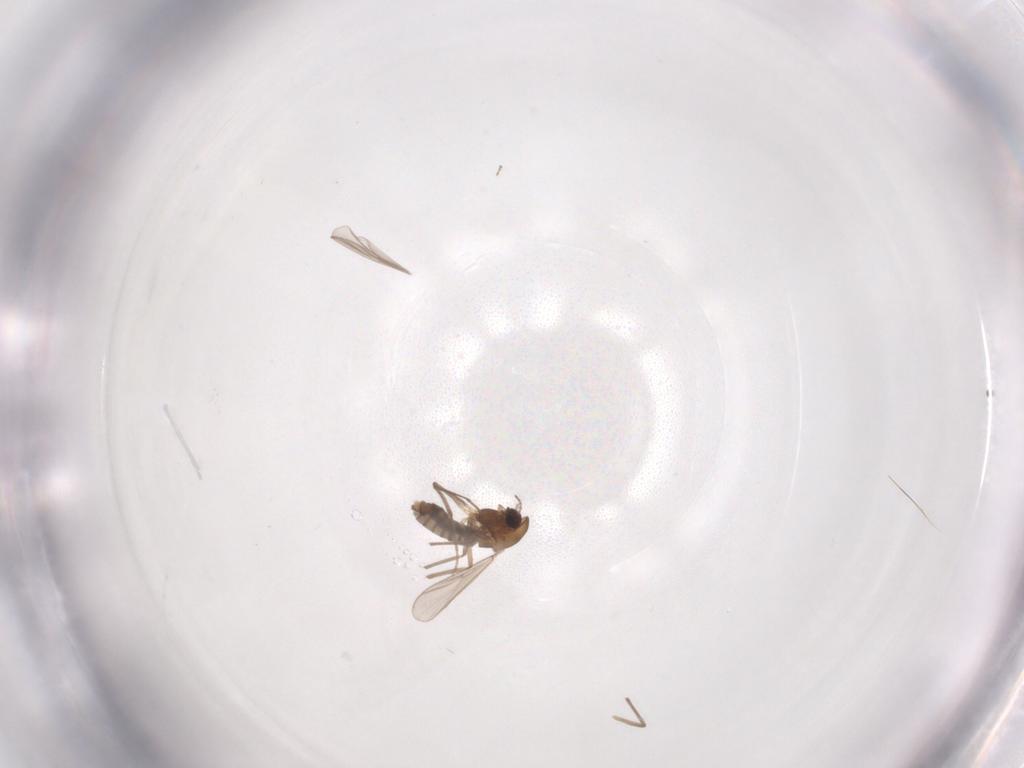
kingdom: Animalia
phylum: Arthropoda
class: Insecta
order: Diptera
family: Chironomidae
